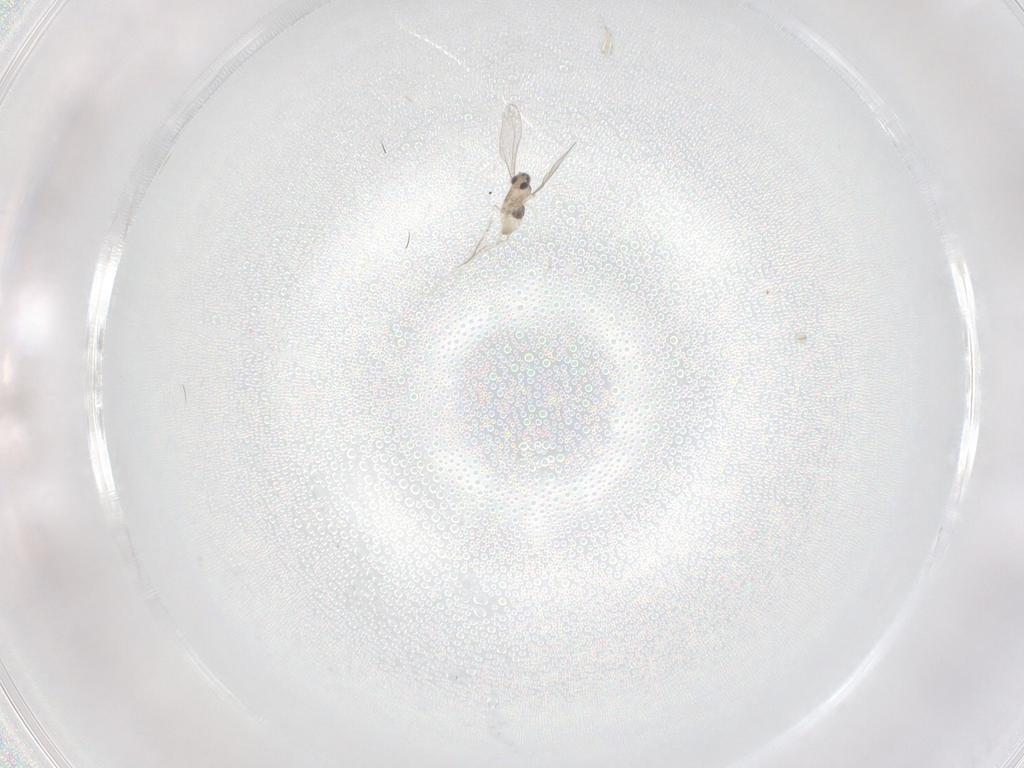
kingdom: Animalia
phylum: Arthropoda
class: Insecta
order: Diptera
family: Cecidomyiidae
